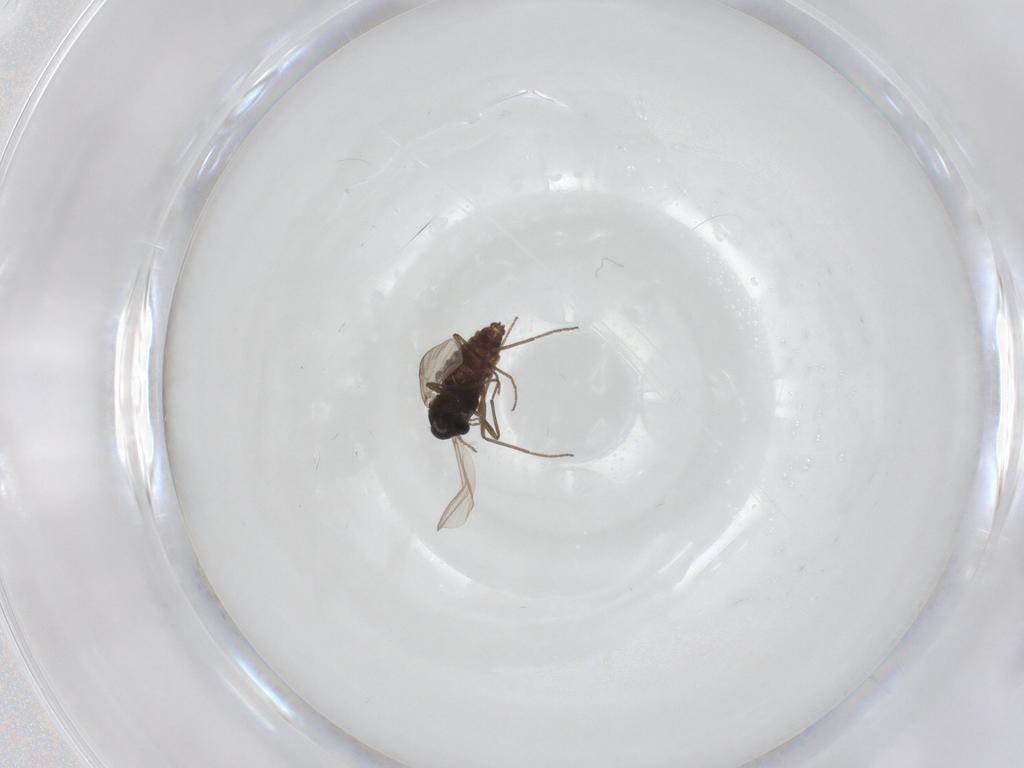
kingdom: Animalia
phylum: Arthropoda
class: Insecta
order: Diptera
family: Chironomidae
